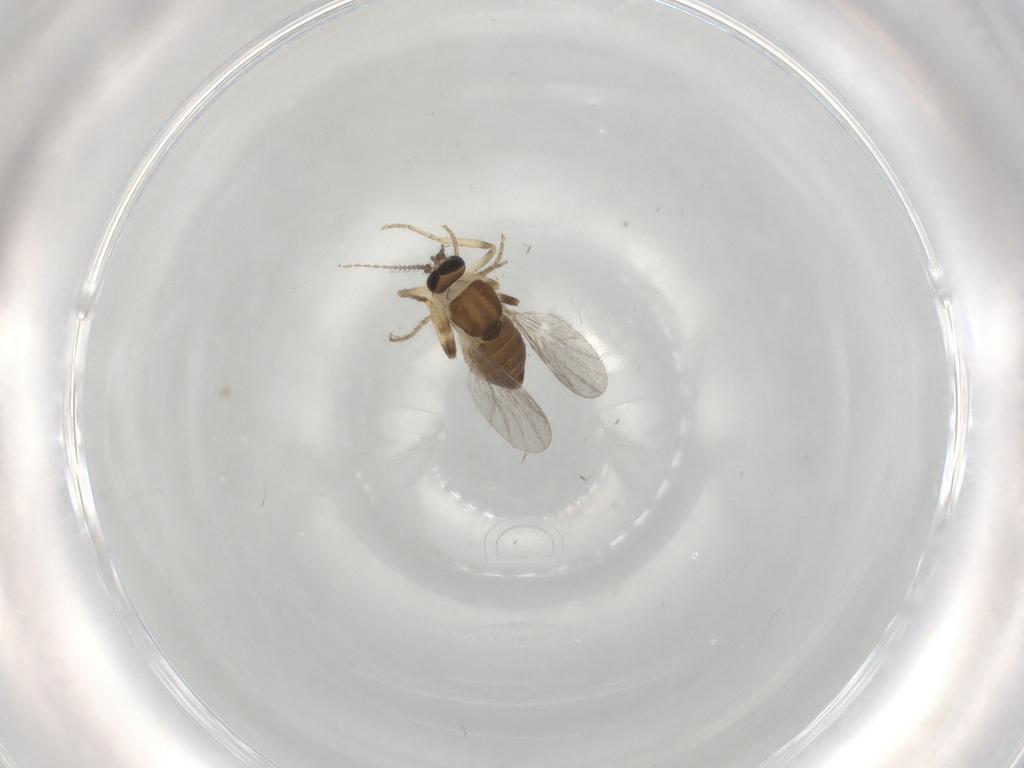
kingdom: Animalia
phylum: Arthropoda
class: Insecta
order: Diptera
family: Ceratopogonidae
